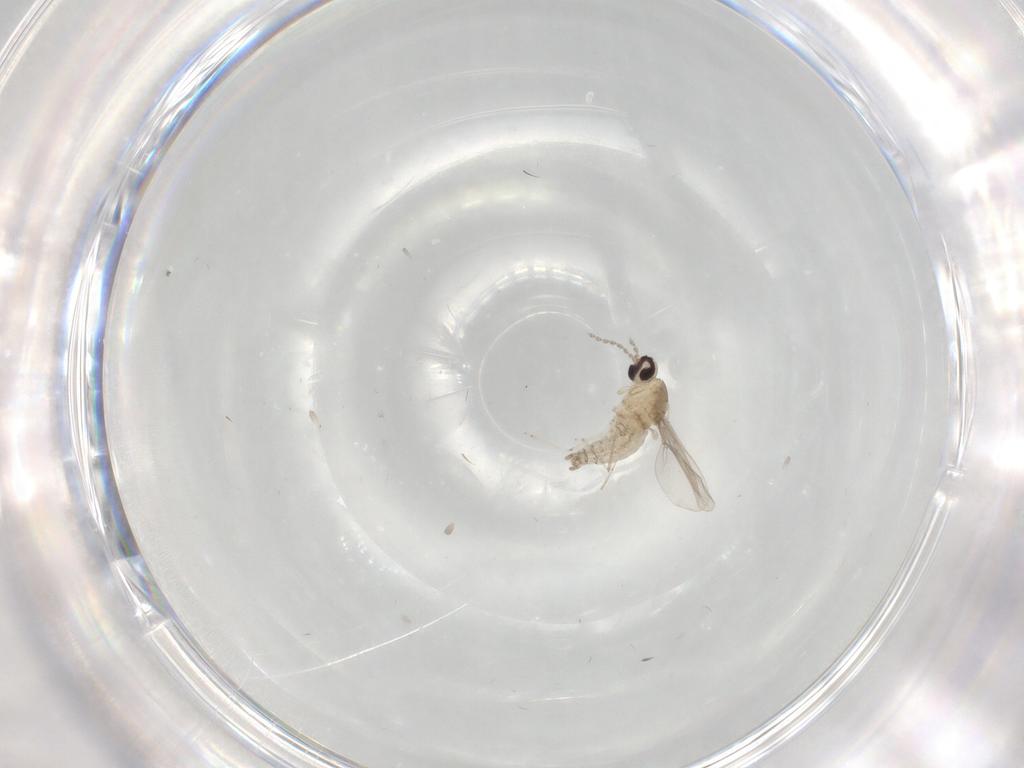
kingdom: Animalia
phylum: Arthropoda
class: Insecta
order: Diptera
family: Cecidomyiidae
